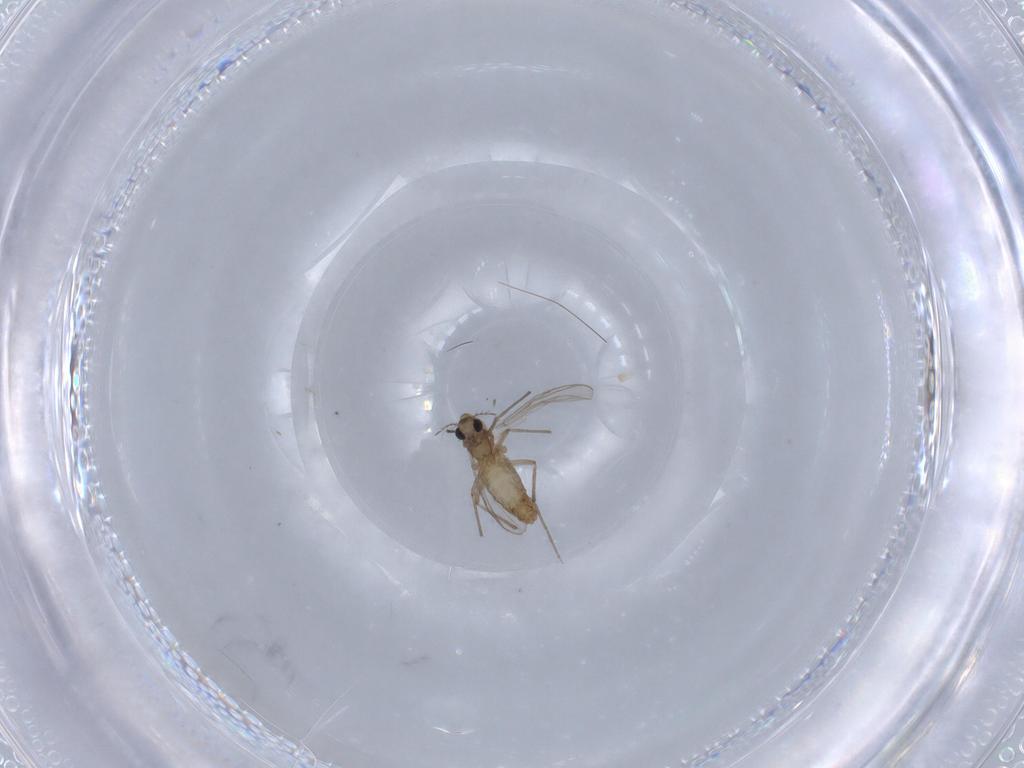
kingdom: Animalia
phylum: Arthropoda
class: Insecta
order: Diptera
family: Chironomidae
